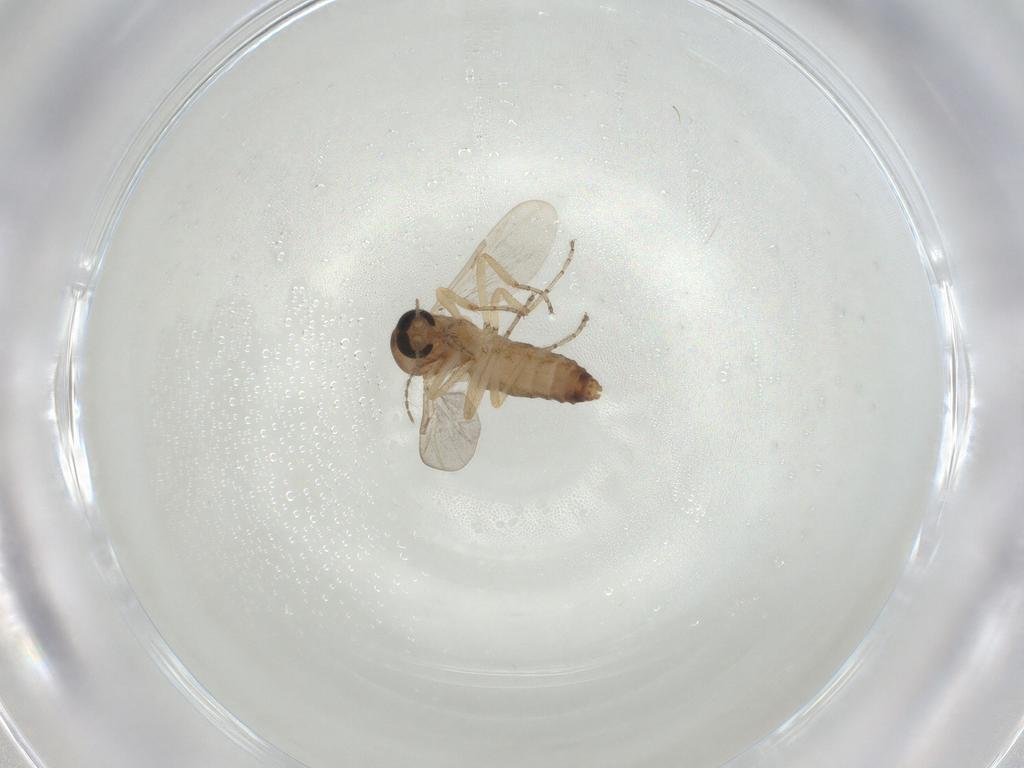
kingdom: Animalia
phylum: Arthropoda
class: Insecta
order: Diptera
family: Ceratopogonidae
